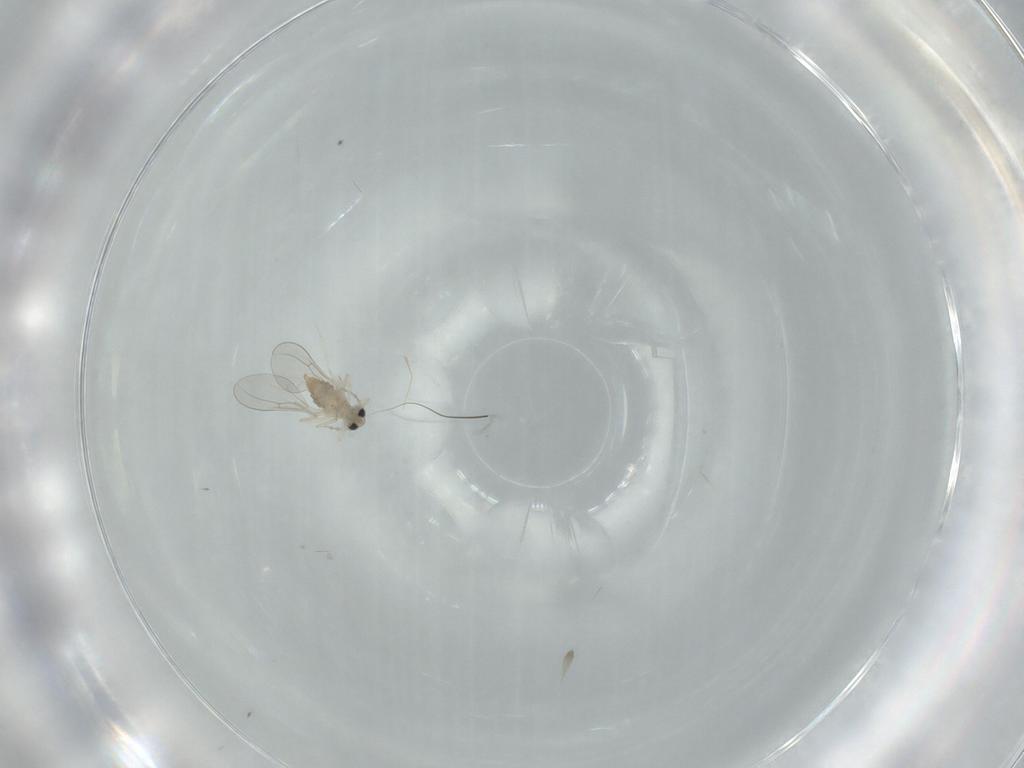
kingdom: Animalia
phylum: Arthropoda
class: Insecta
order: Diptera
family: Cecidomyiidae
